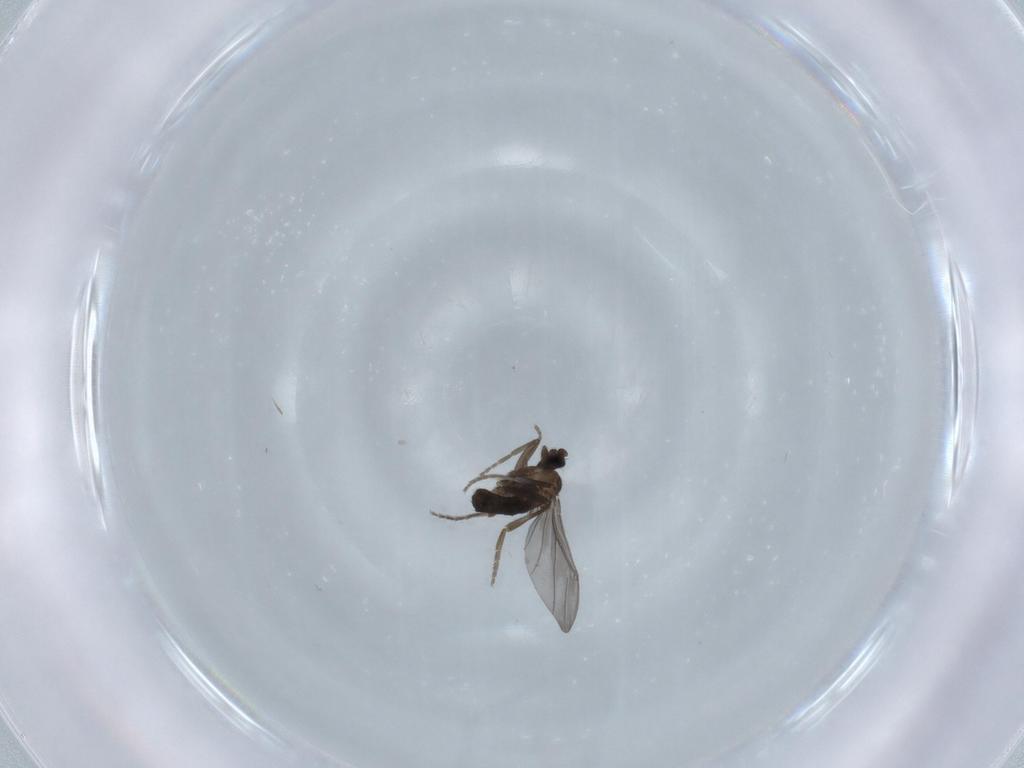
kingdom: Animalia
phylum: Arthropoda
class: Insecta
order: Diptera
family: Phoridae
